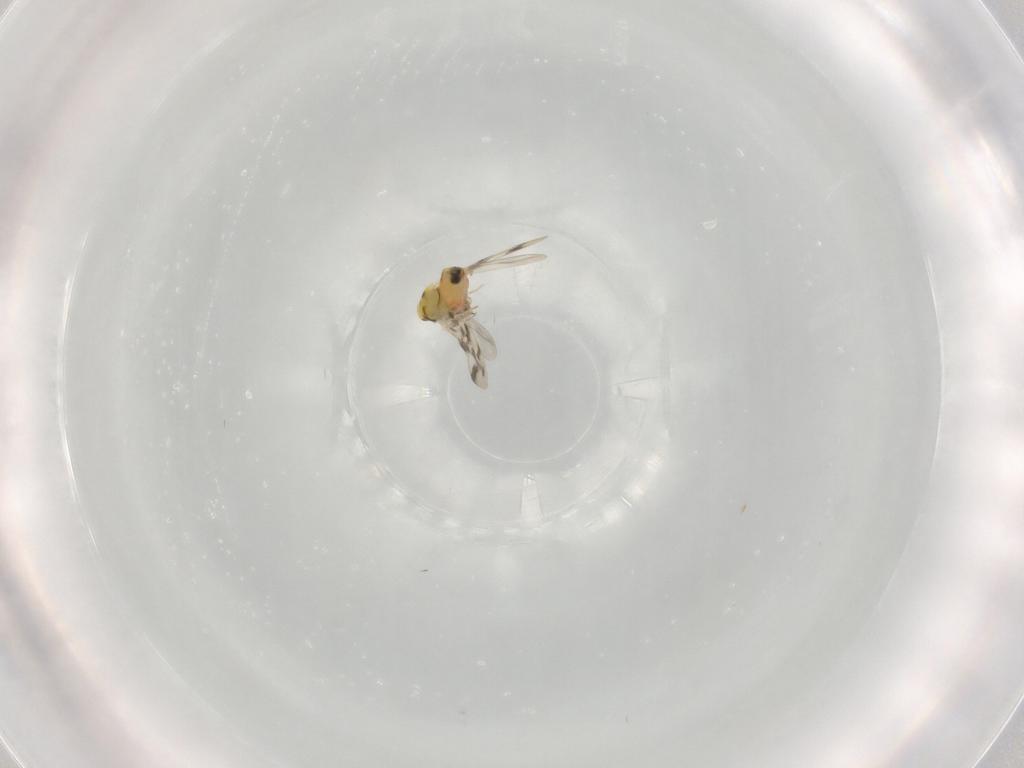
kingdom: Animalia
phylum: Arthropoda
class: Insecta
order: Hemiptera
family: Aleyrodidae
